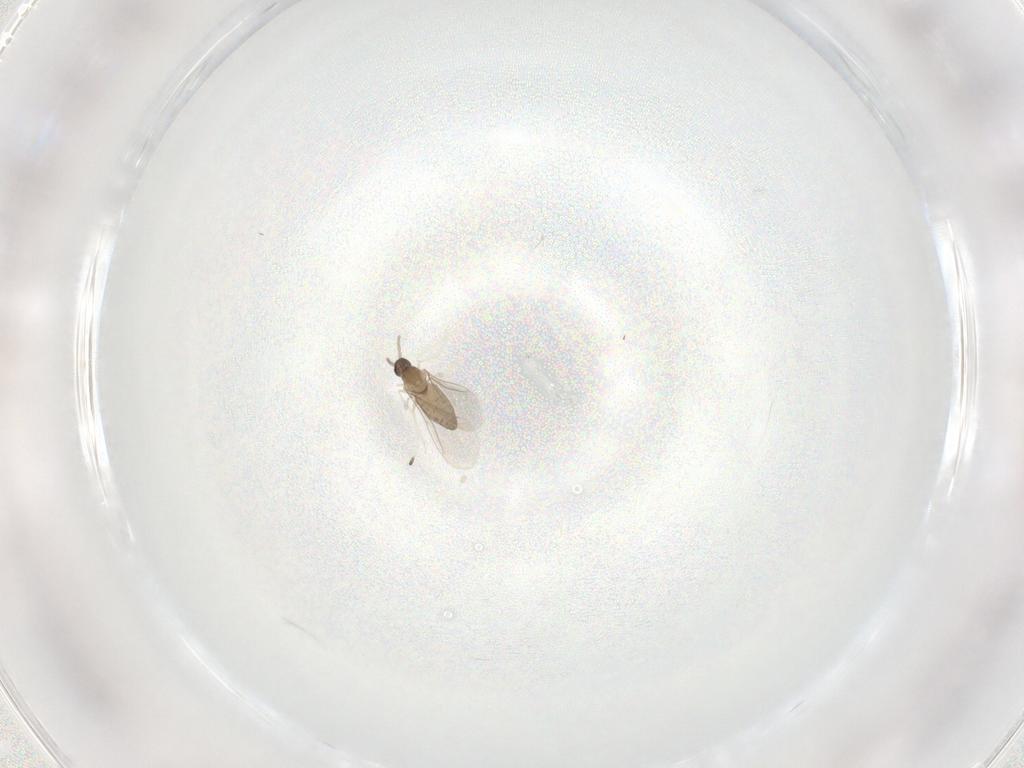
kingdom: Animalia
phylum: Arthropoda
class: Insecta
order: Diptera
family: Cecidomyiidae
